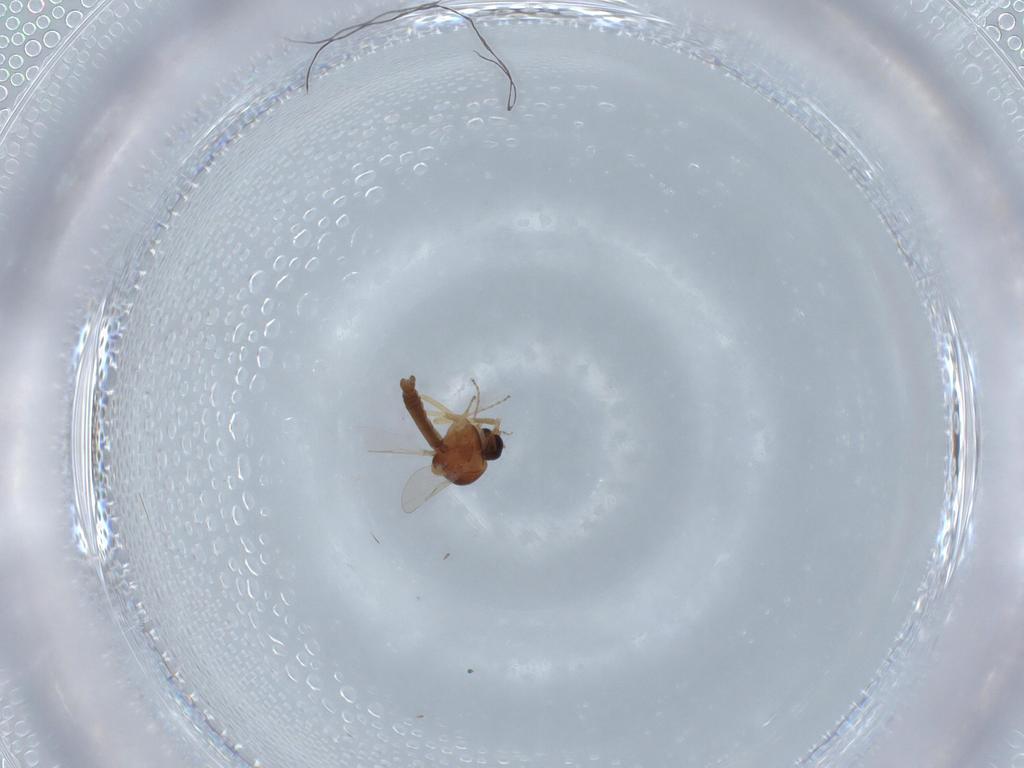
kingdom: Animalia
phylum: Arthropoda
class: Insecta
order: Diptera
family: Ceratopogonidae
